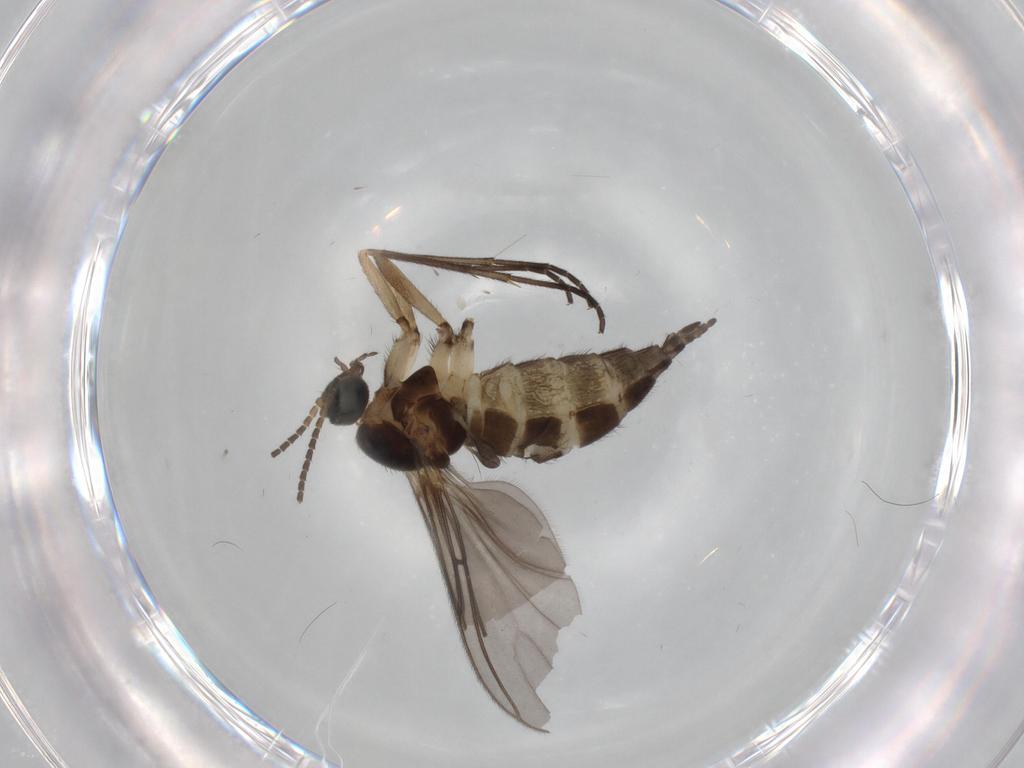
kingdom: Animalia
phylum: Arthropoda
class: Insecta
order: Diptera
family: Sciaridae
